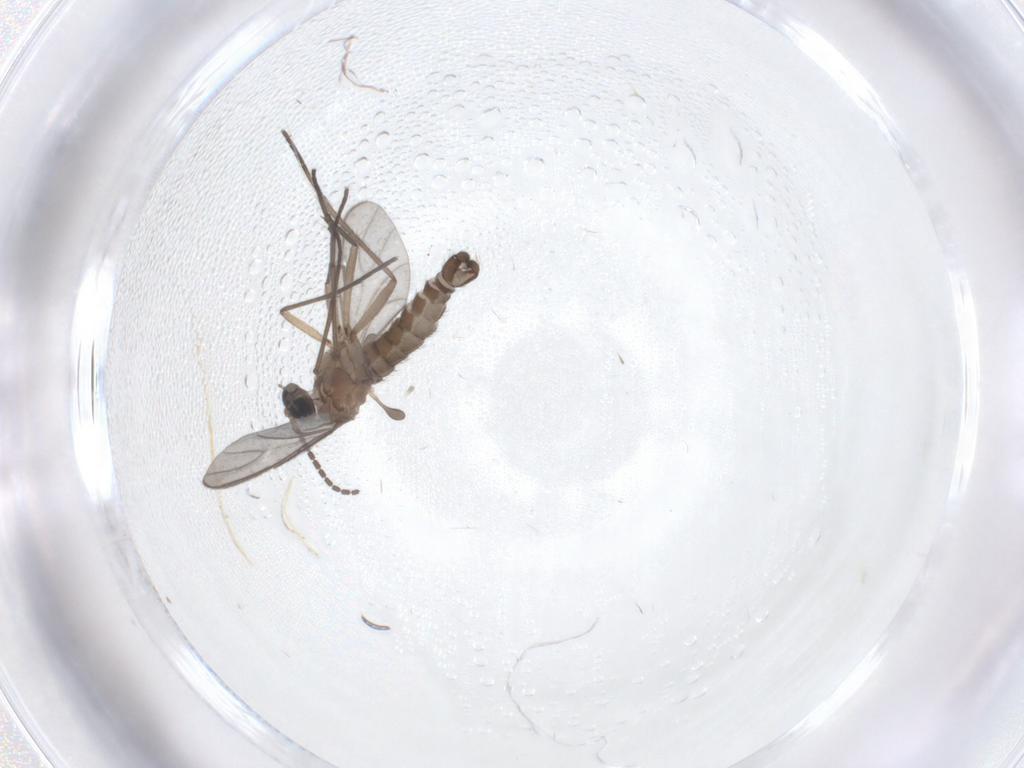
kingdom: Animalia
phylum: Arthropoda
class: Insecta
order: Diptera
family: Sciaridae
